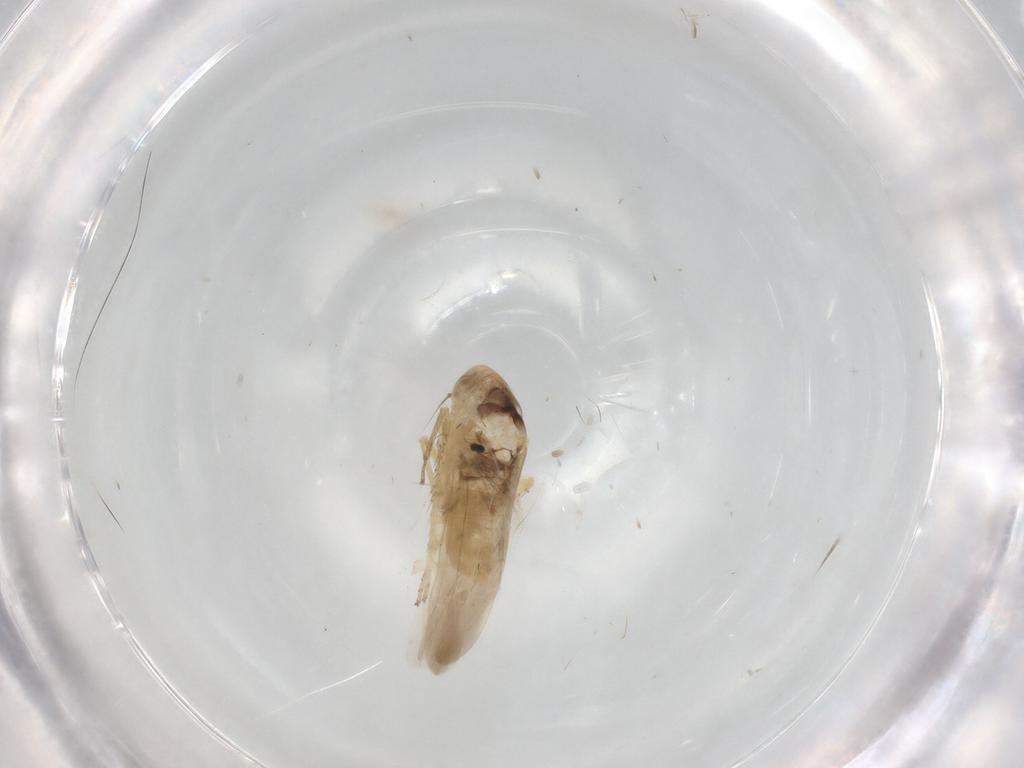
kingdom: Animalia
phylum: Arthropoda
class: Insecta
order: Hemiptera
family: Cicadellidae
